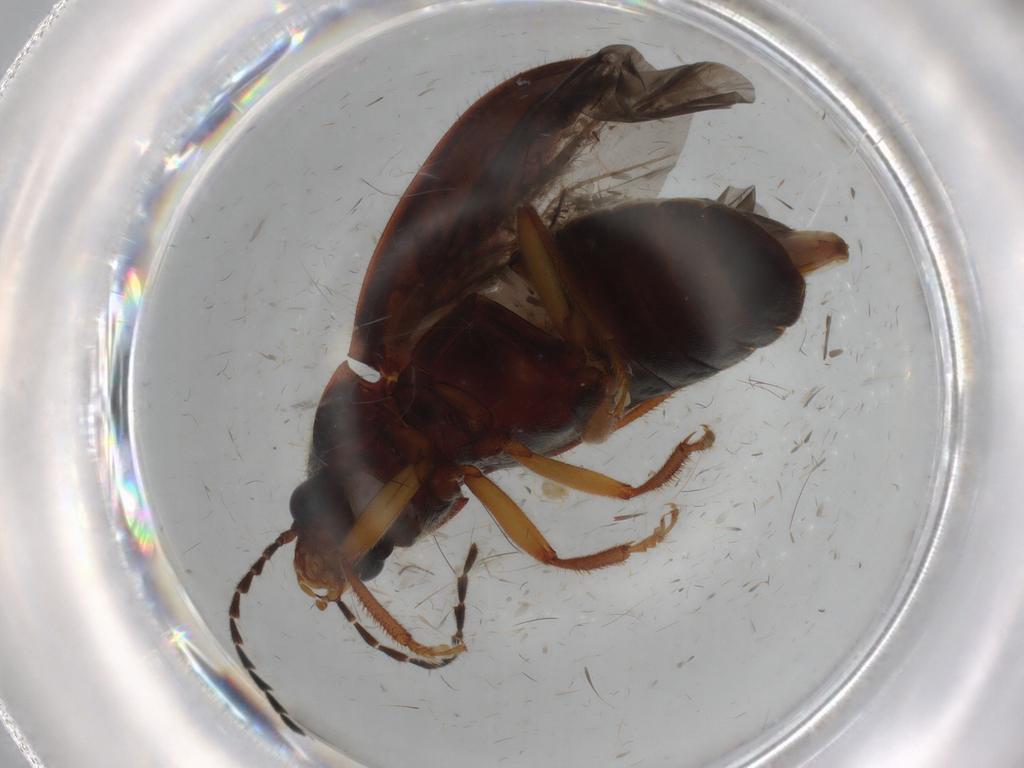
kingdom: Animalia
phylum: Arthropoda
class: Insecta
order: Coleoptera
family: Ptilodactylidae
